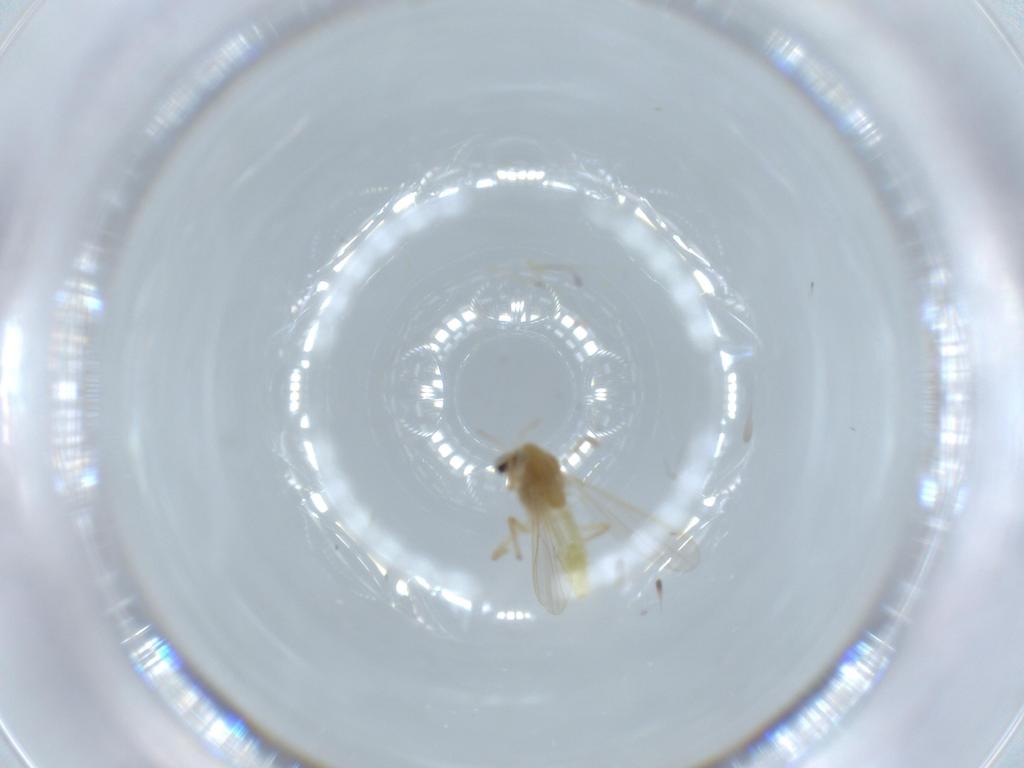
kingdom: Animalia
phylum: Arthropoda
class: Insecta
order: Diptera
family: Chironomidae
